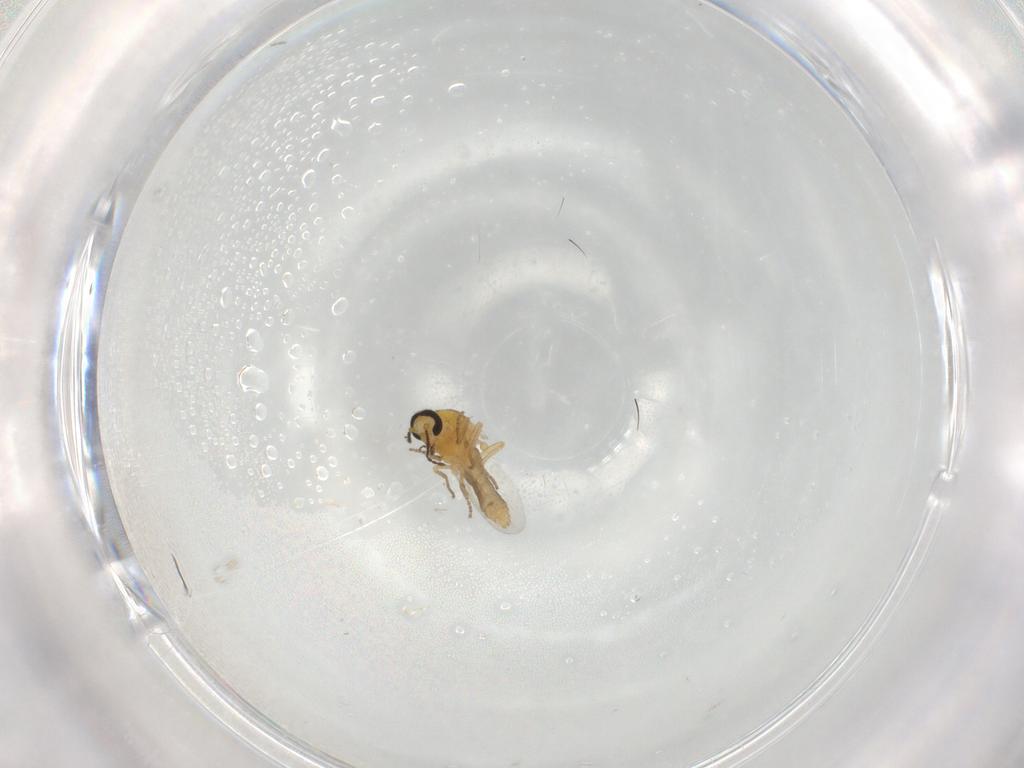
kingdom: Animalia
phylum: Arthropoda
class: Insecta
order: Diptera
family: Ceratopogonidae
